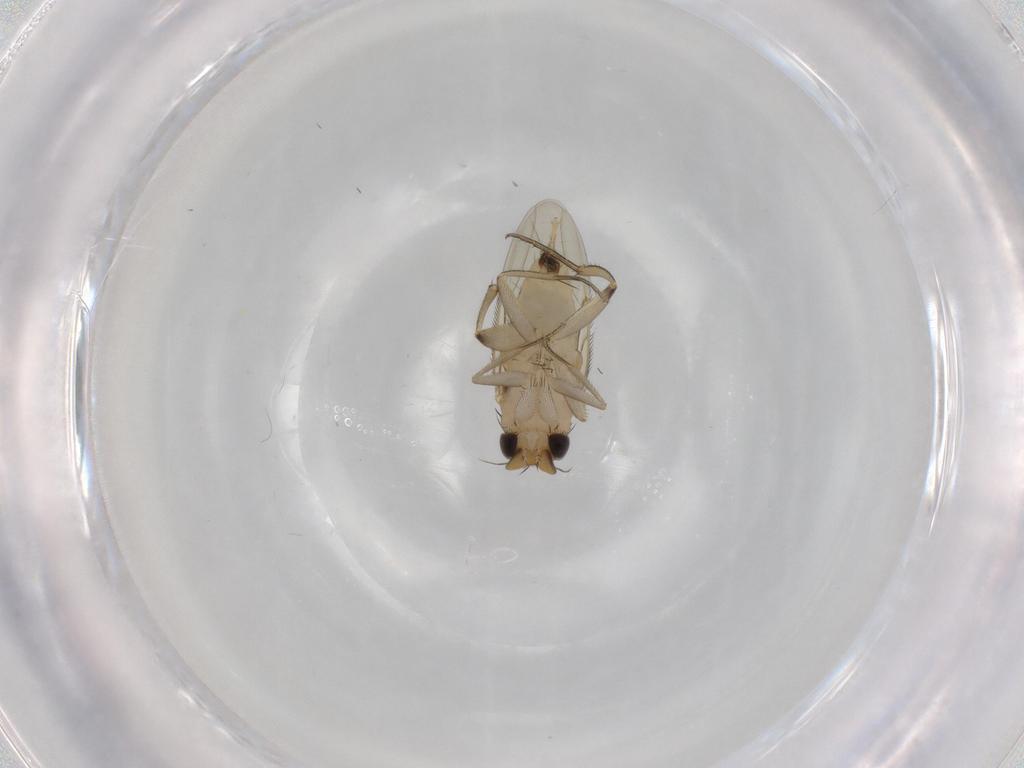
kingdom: Animalia
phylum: Arthropoda
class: Insecta
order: Diptera
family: Phoridae
